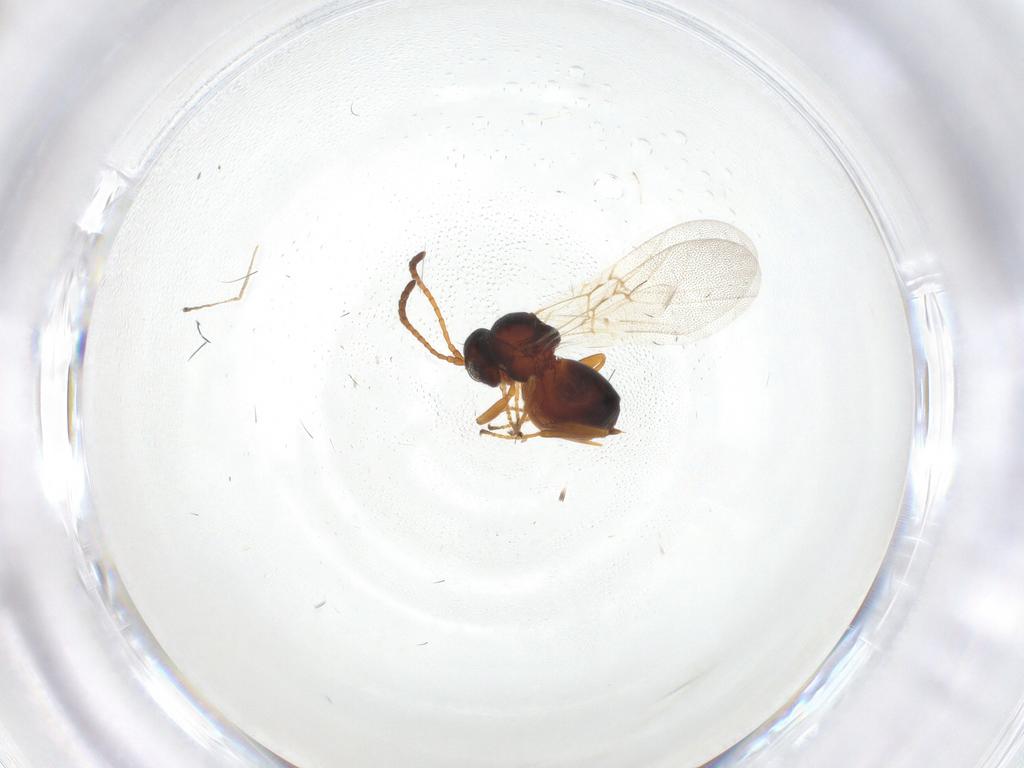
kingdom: Animalia
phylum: Arthropoda
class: Insecta
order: Hymenoptera
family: Cynipidae
